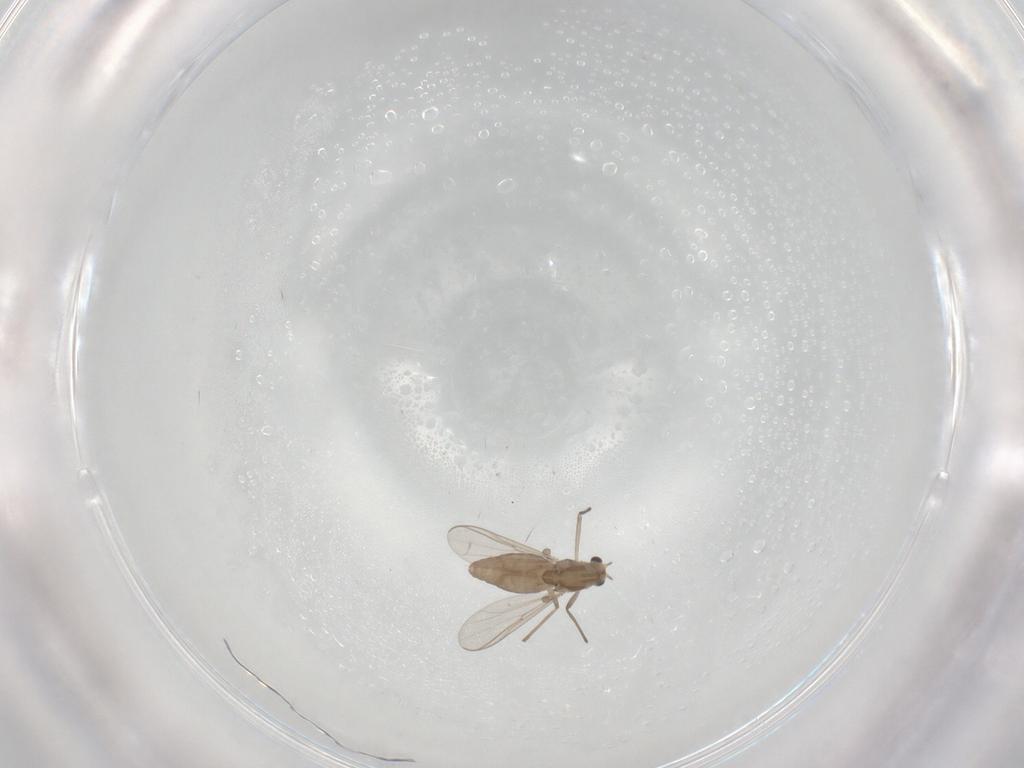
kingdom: Animalia
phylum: Arthropoda
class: Insecta
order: Diptera
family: Chironomidae
